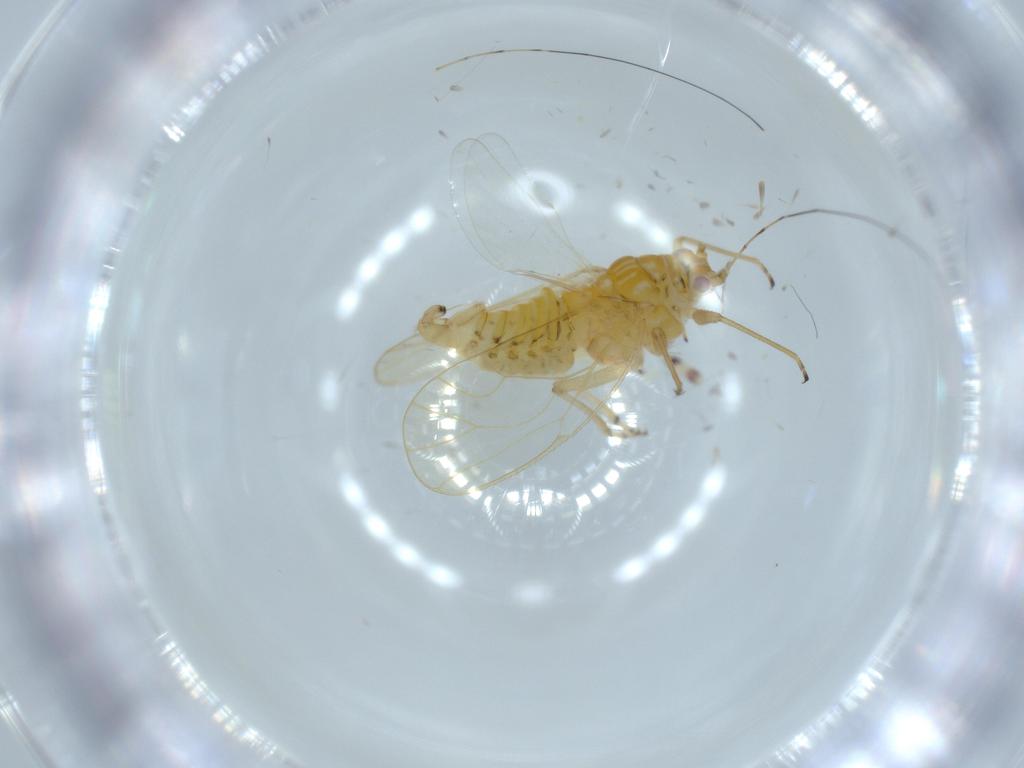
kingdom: Animalia
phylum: Arthropoda
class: Insecta
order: Hemiptera
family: Psyllidae
